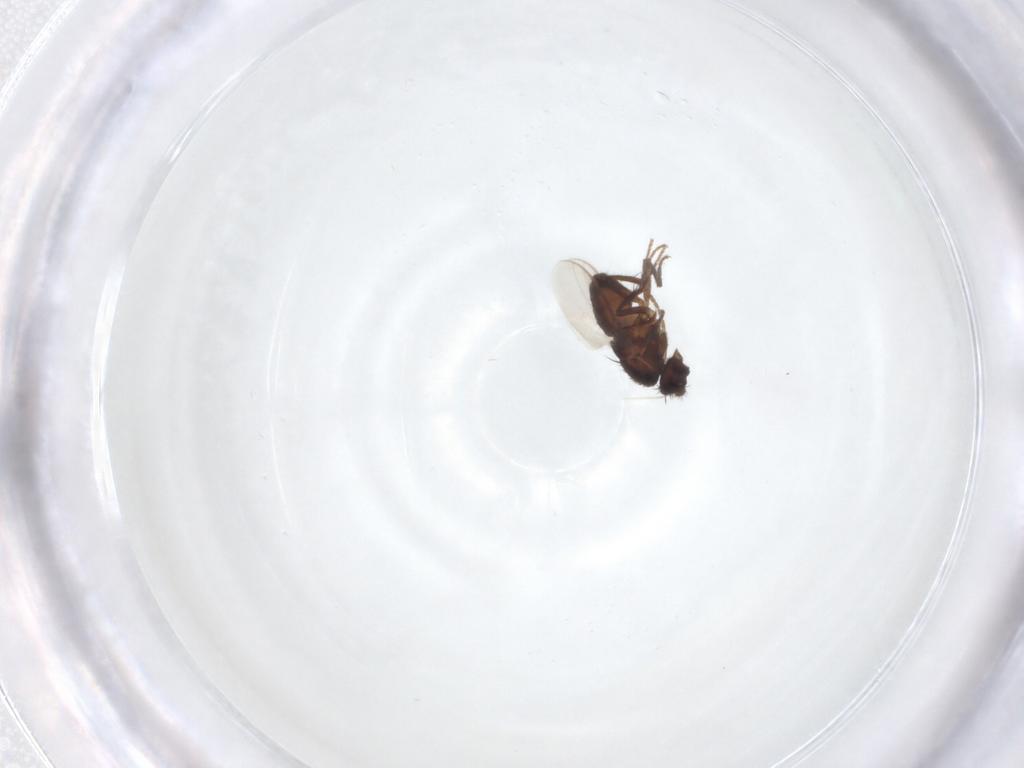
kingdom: Animalia
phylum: Arthropoda
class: Insecta
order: Diptera
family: Sphaeroceridae
